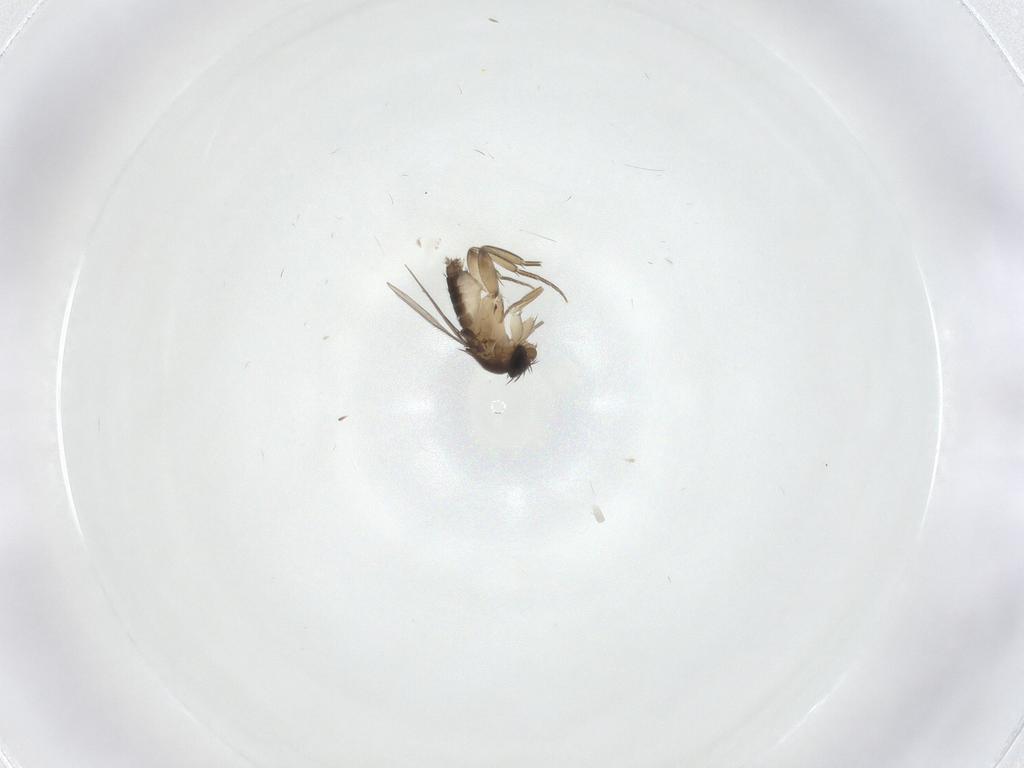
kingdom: Animalia
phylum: Arthropoda
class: Insecta
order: Diptera
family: Phoridae
